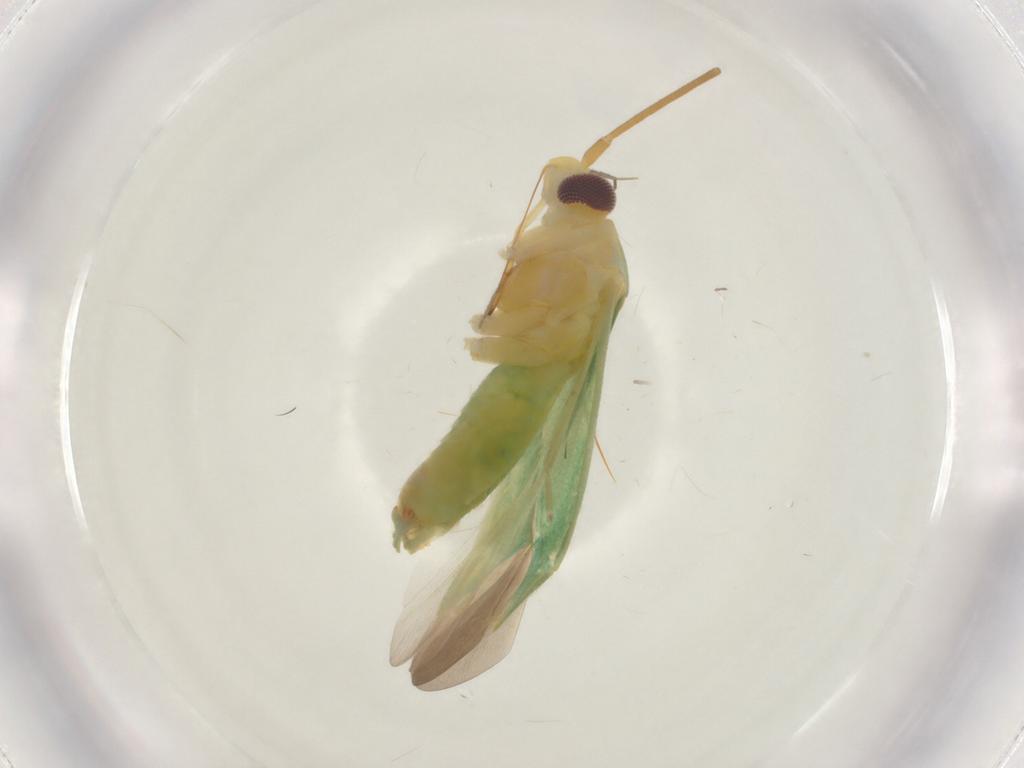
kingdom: Animalia
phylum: Arthropoda
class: Insecta
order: Hemiptera
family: Miridae
